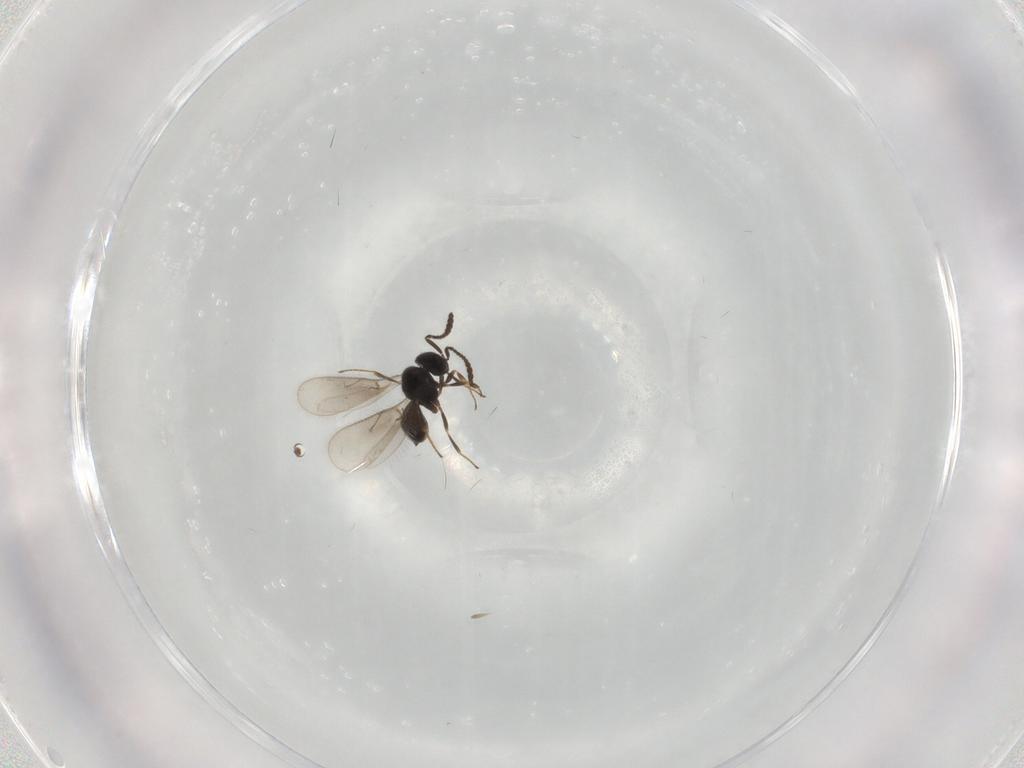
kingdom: Animalia
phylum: Arthropoda
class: Insecta
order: Hymenoptera
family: Scelionidae
